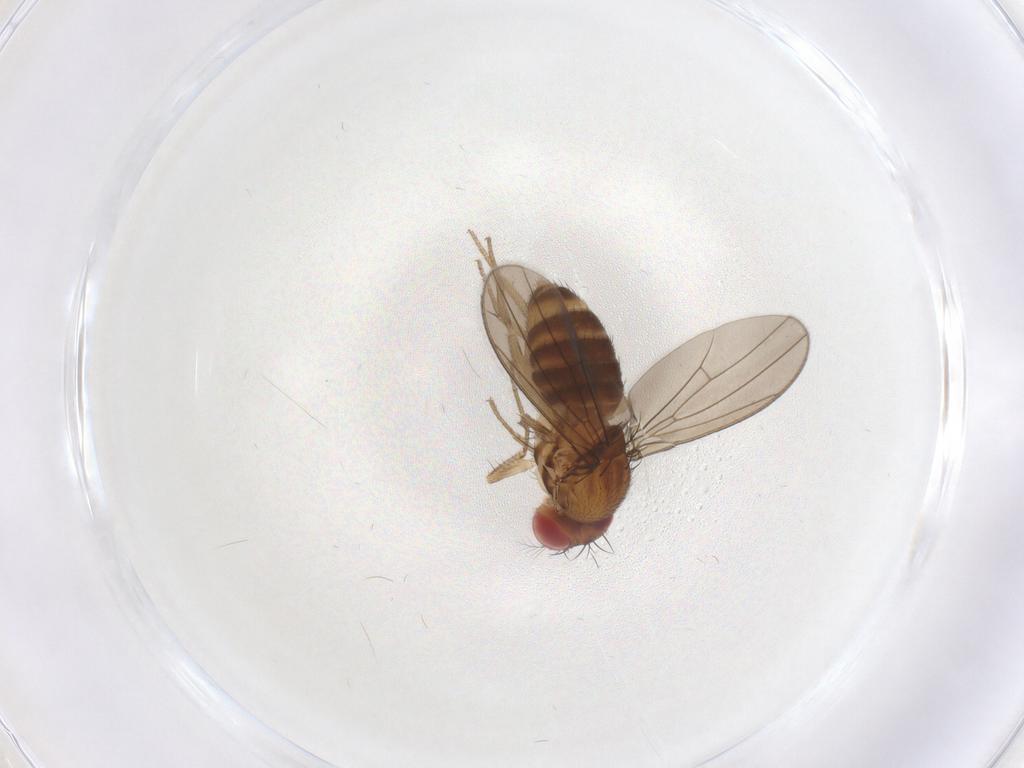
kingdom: Animalia
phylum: Arthropoda
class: Insecta
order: Diptera
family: Drosophilidae
